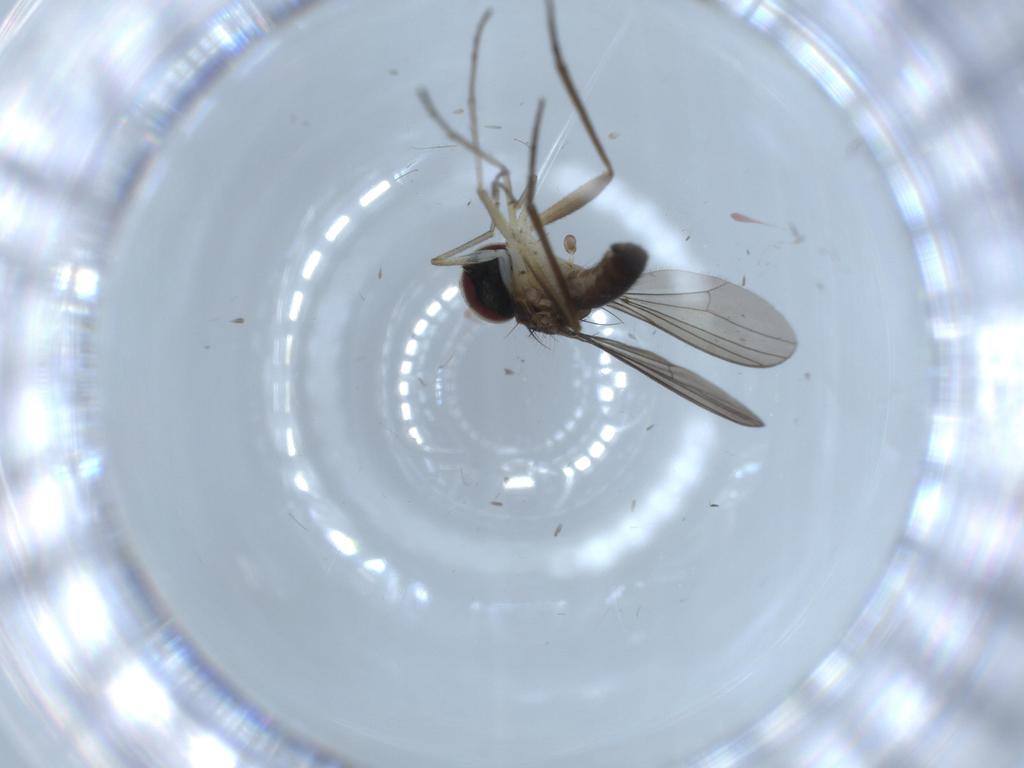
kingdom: Animalia
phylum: Arthropoda
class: Insecta
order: Diptera
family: Dolichopodidae
